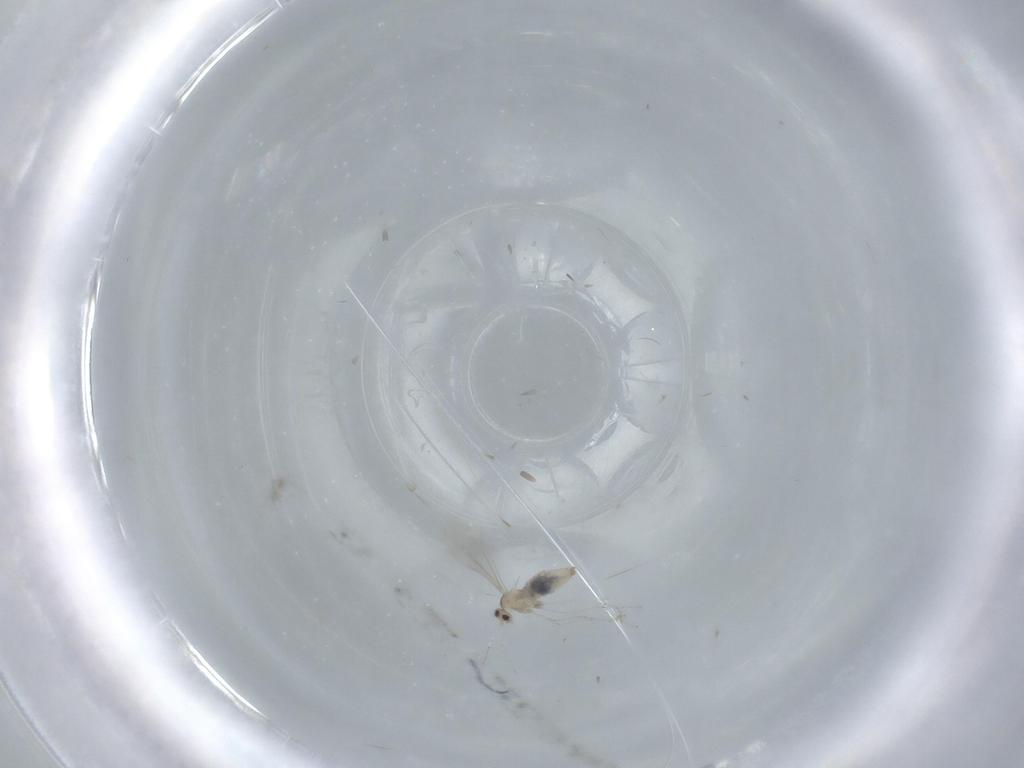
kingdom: Animalia
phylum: Arthropoda
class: Insecta
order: Diptera
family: Cecidomyiidae
